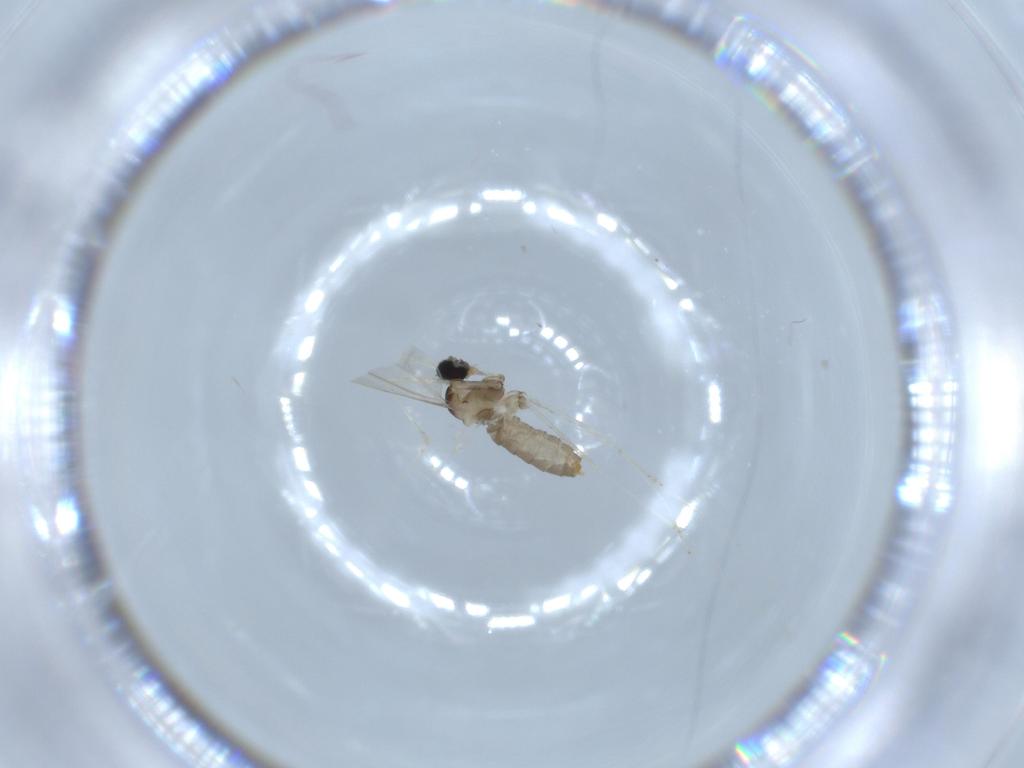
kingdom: Animalia
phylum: Arthropoda
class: Insecta
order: Diptera
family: Cecidomyiidae
